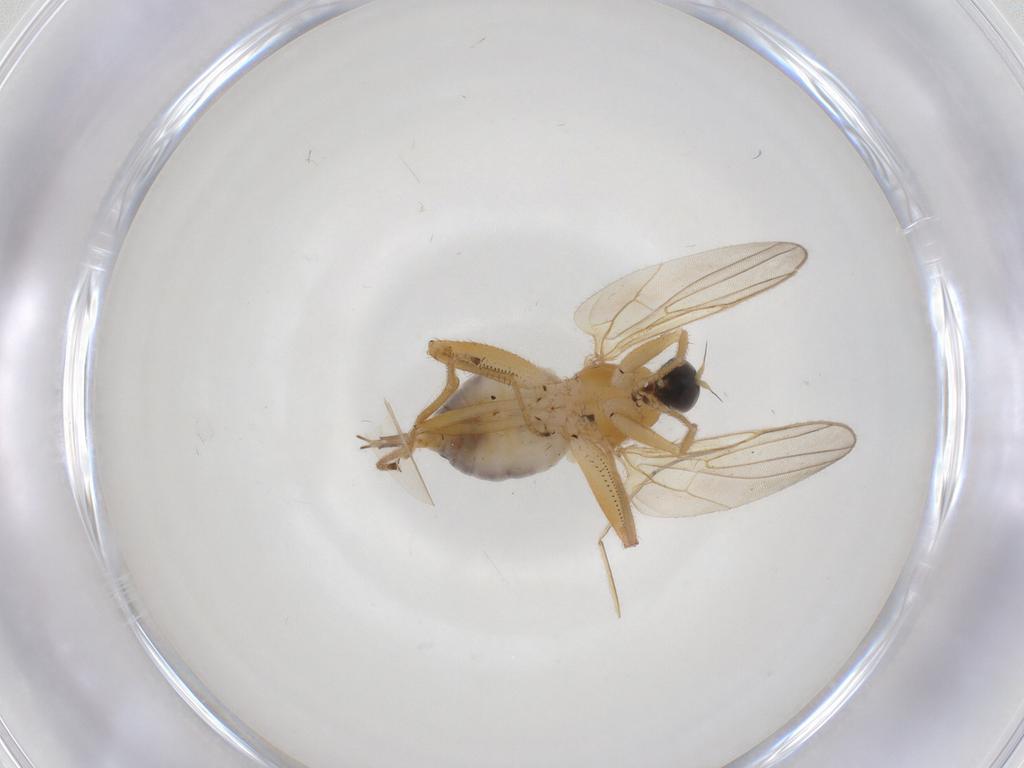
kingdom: Animalia
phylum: Arthropoda
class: Insecta
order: Diptera
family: Hybotidae
